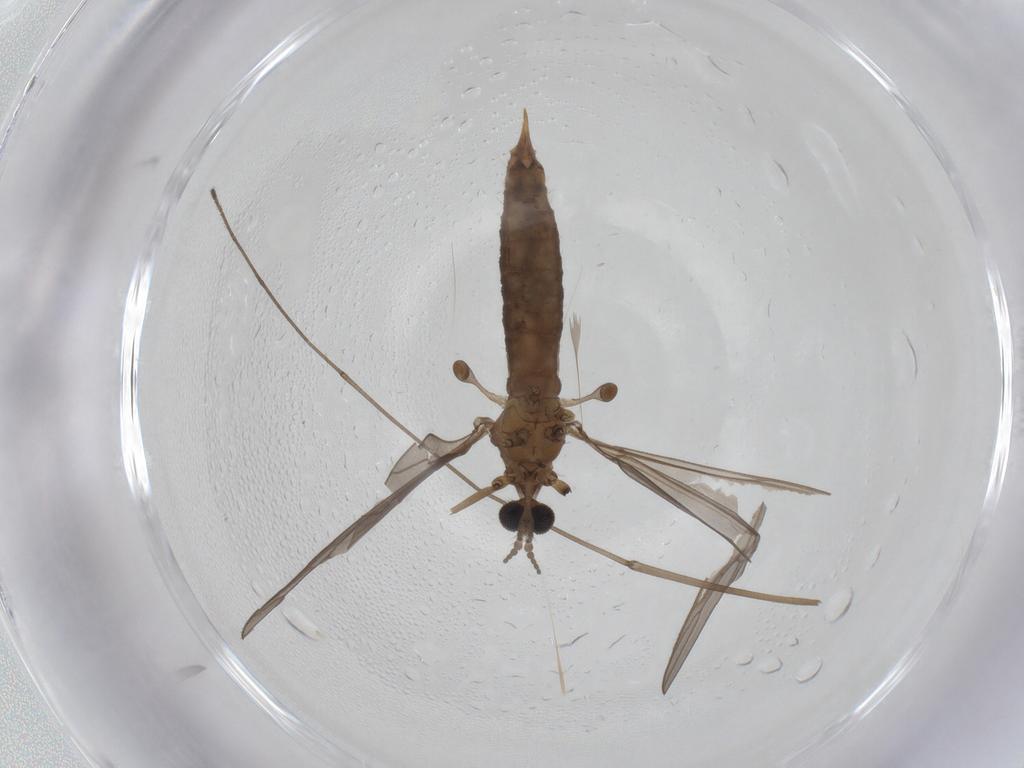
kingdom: Animalia
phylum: Arthropoda
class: Insecta
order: Diptera
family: Limoniidae
